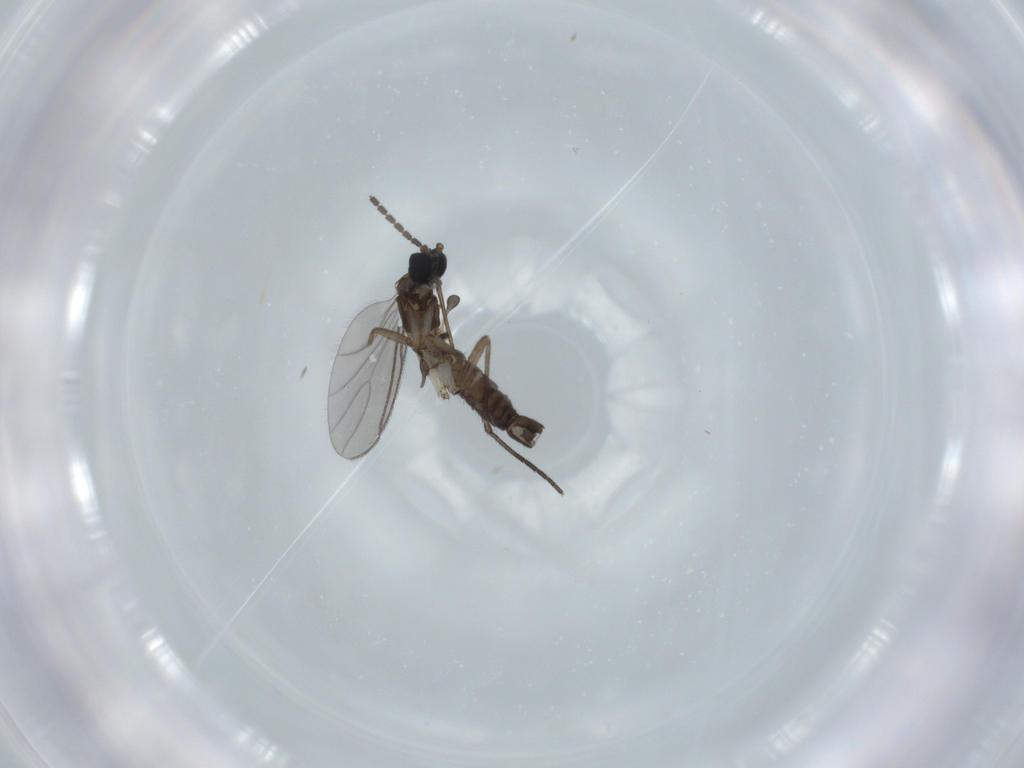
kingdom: Animalia
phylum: Arthropoda
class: Insecta
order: Diptera
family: Sciaridae
